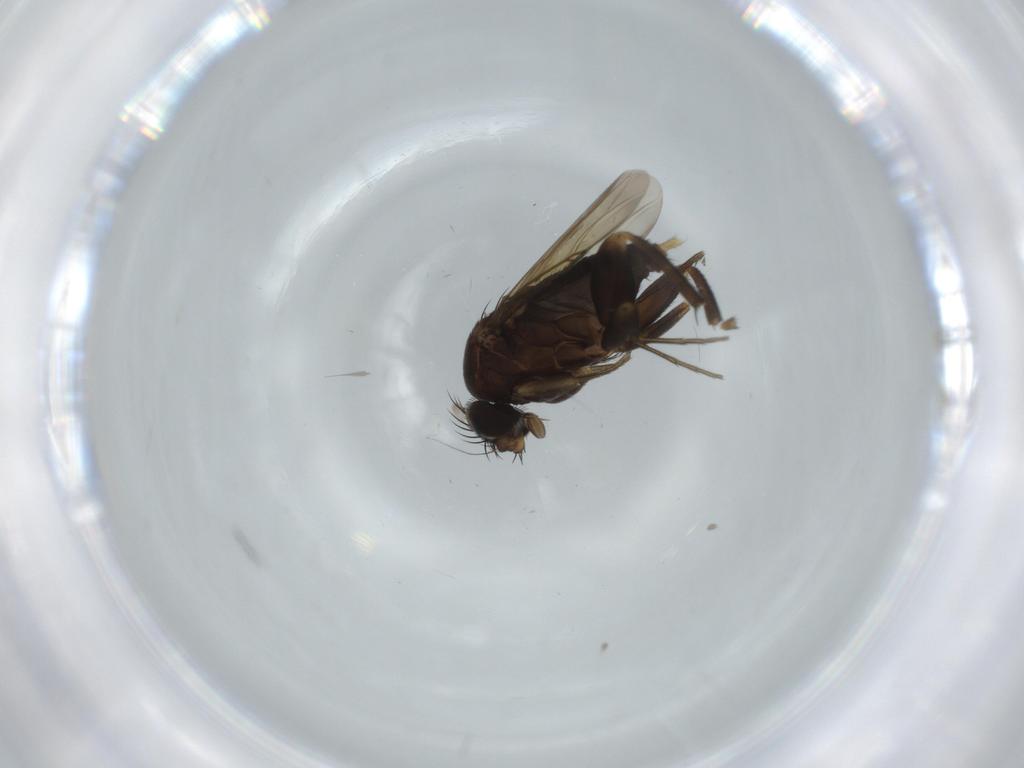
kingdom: Animalia
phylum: Arthropoda
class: Insecta
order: Diptera
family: Phoridae
